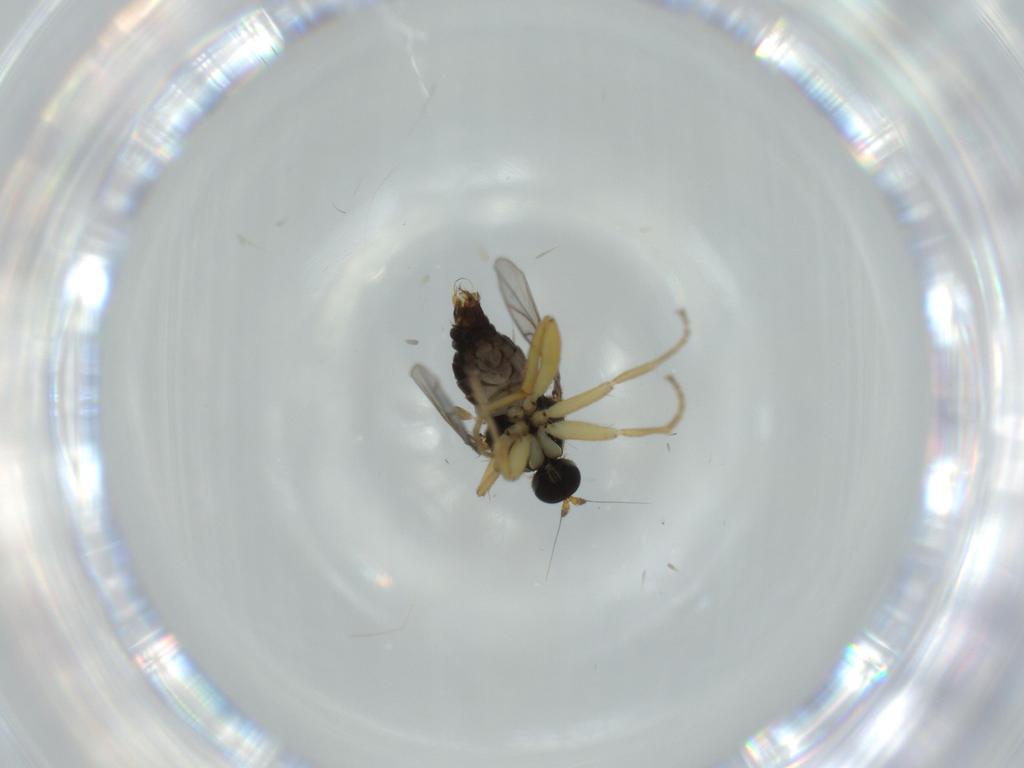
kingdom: Animalia
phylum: Arthropoda
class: Insecta
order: Diptera
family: Hybotidae
